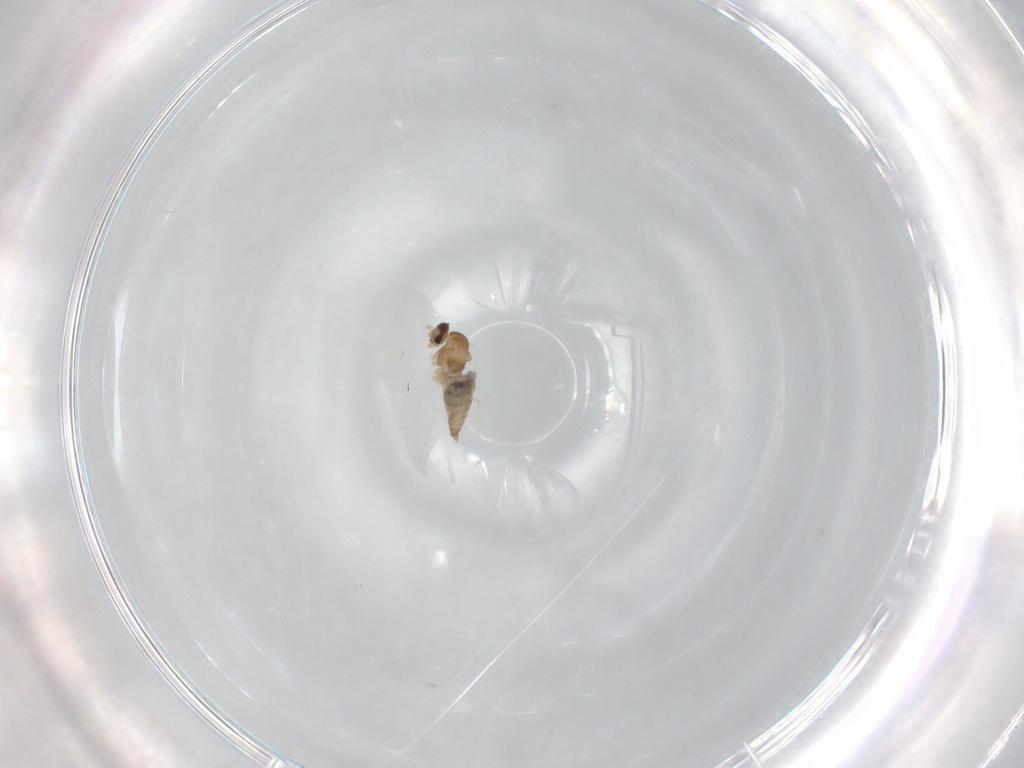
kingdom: Animalia
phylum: Arthropoda
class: Insecta
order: Diptera
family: Cecidomyiidae
